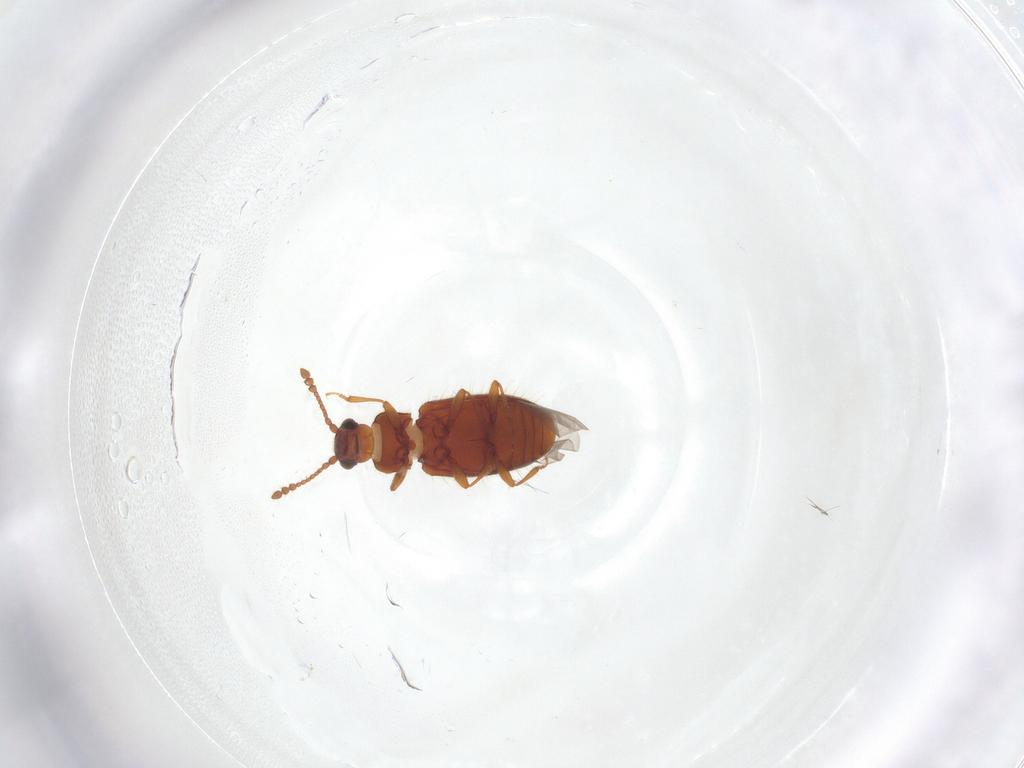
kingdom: Animalia
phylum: Arthropoda
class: Insecta
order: Coleoptera
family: Cryptophagidae
